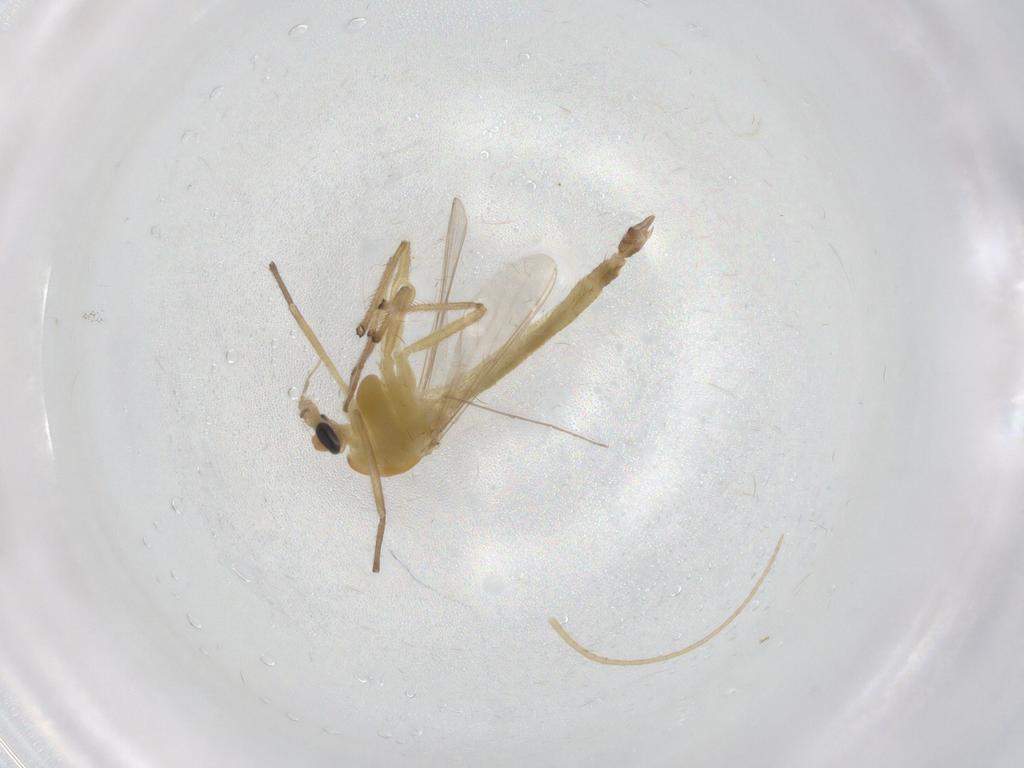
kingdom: Animalia
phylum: Arthropoda
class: Insecta
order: Diptera
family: Chironomidae
